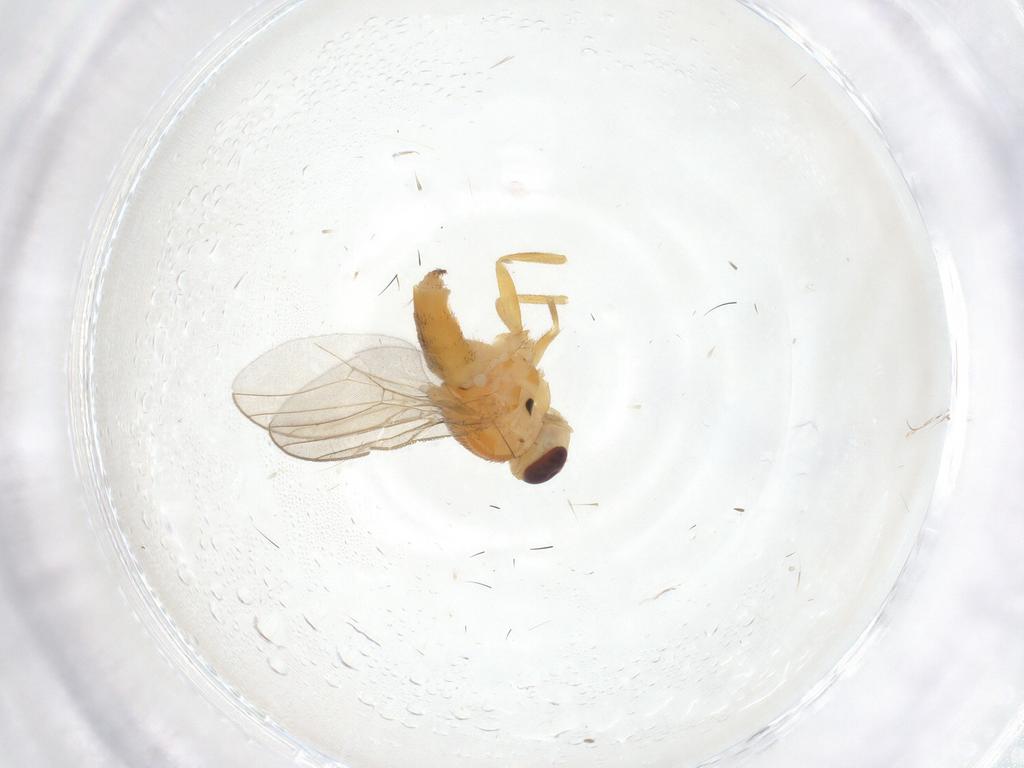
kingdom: Animalia
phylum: Arthropoda
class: Insecta
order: Diptera
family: Chloropidae
